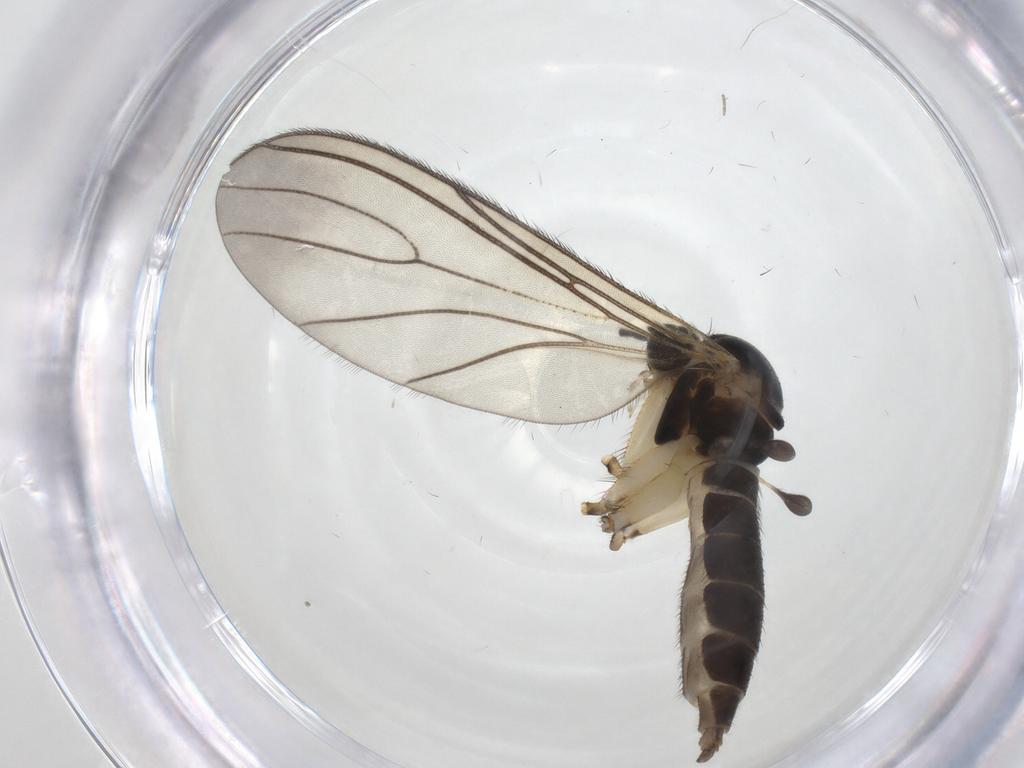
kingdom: Animalia
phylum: Arthropoda
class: Insecta
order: Diptera
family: Sciaridae
